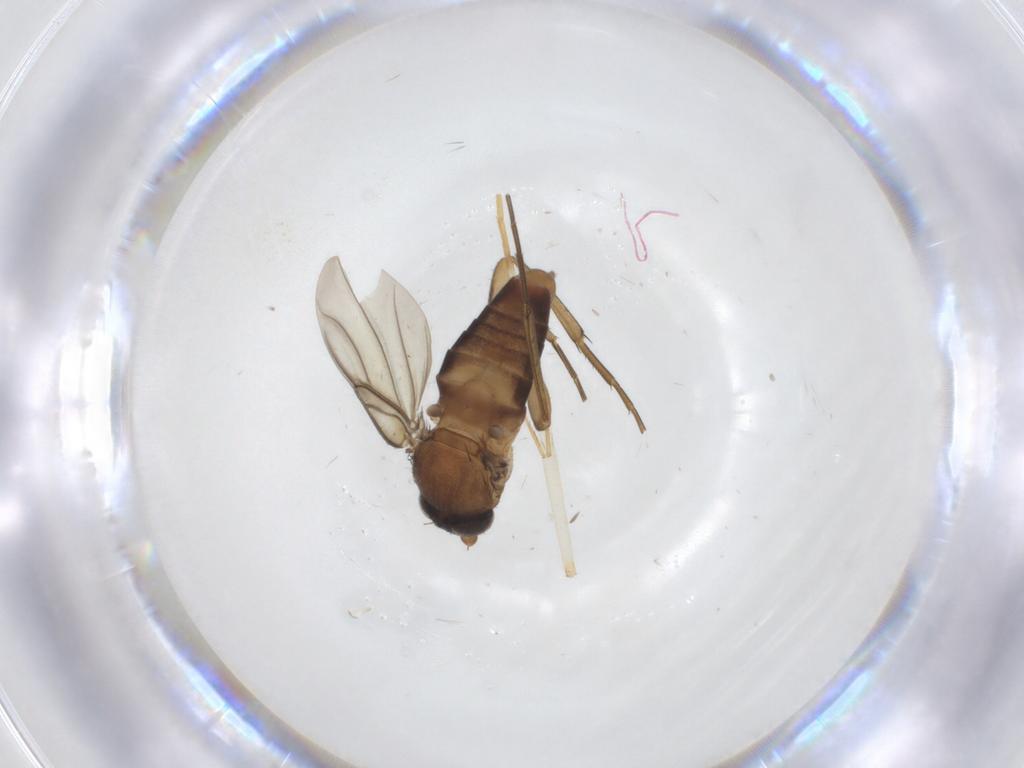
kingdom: Animalia
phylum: Arthropoda
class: Insecta
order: Diptera
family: Phoridae
